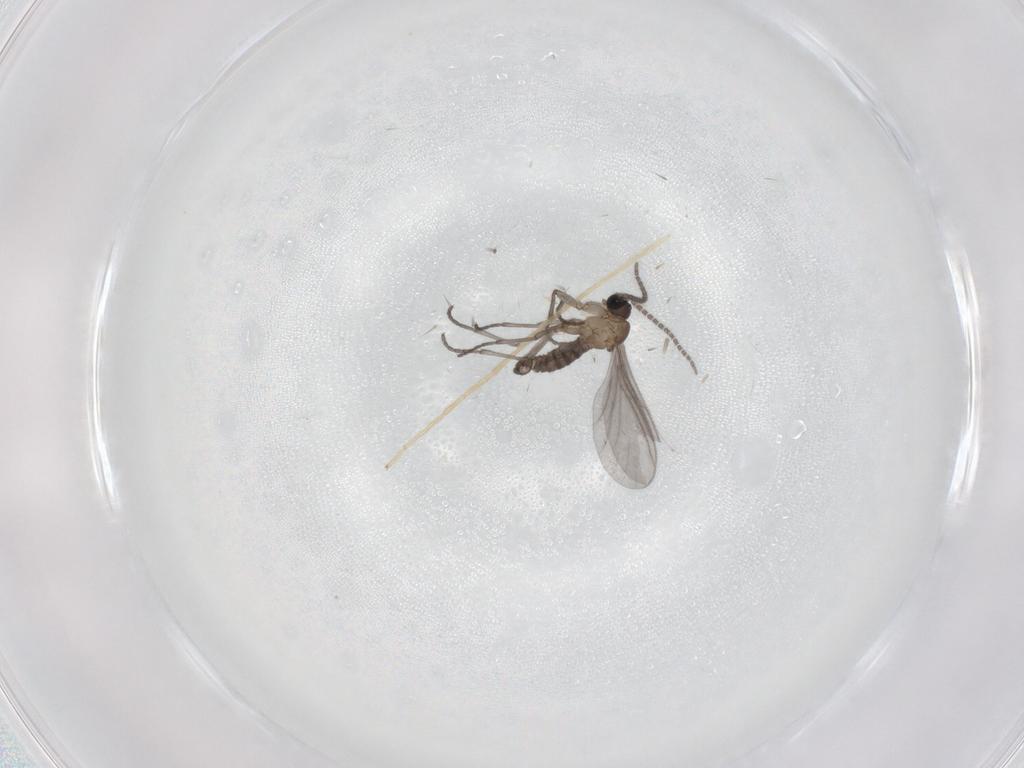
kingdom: Animalia
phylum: Arthropoda
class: Insecta
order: Diptera
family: Sciaridae
